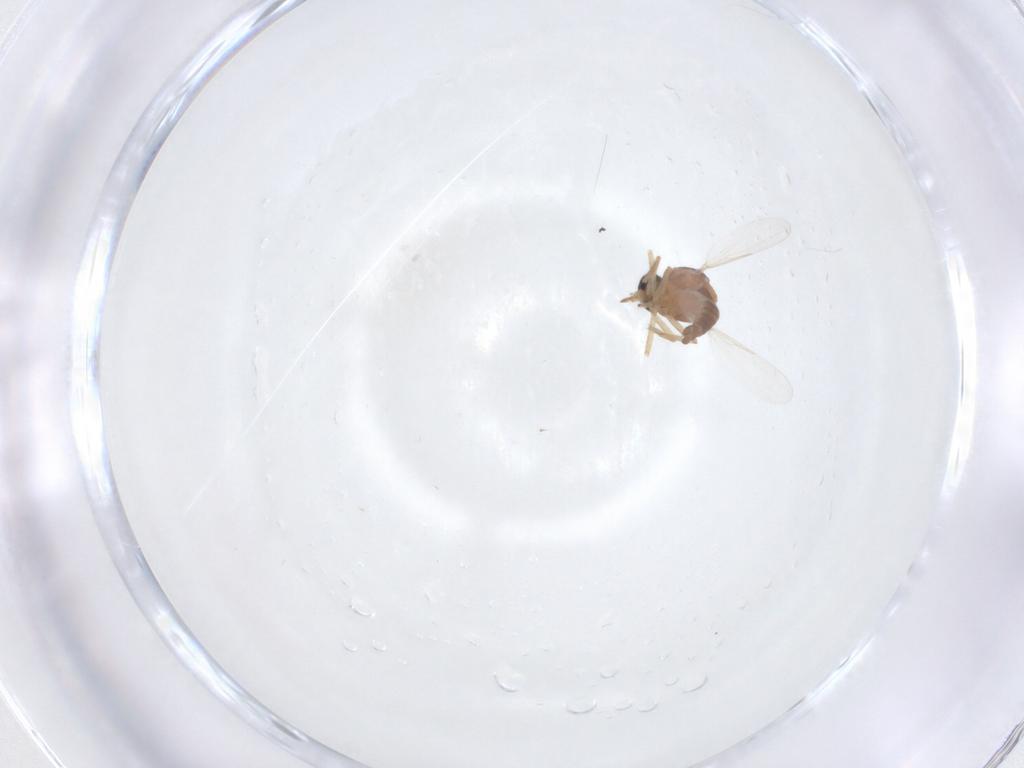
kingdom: Animalia
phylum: Arthropoda
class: Insecta
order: Diptera
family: Ceratopogonidae
